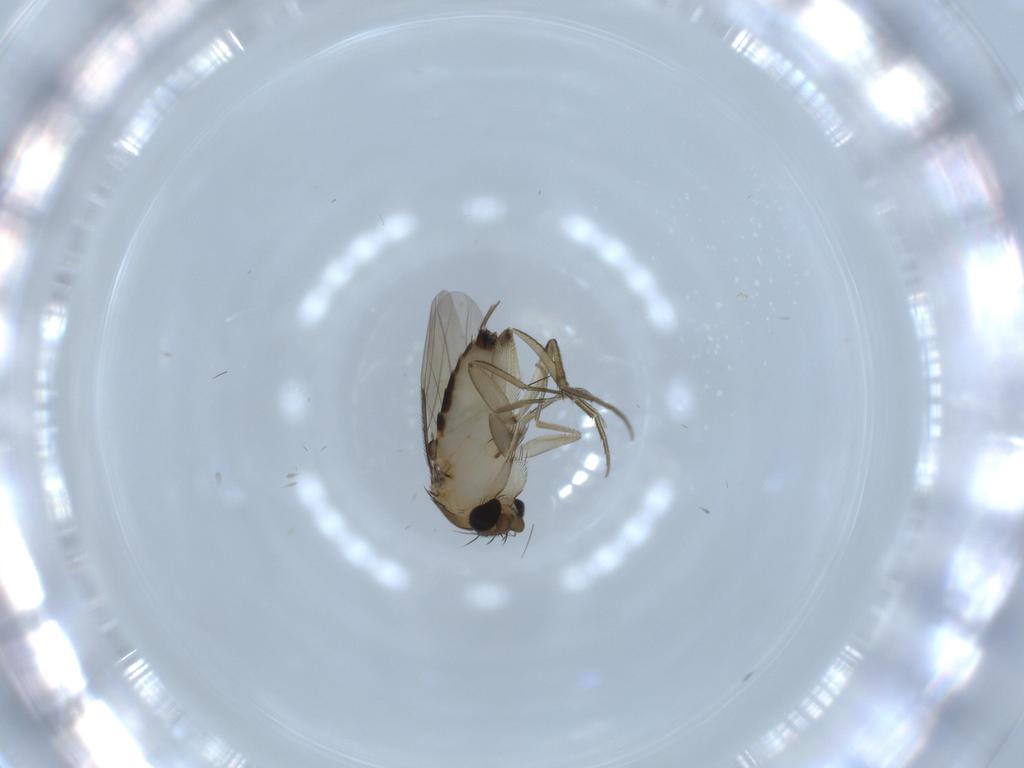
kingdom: Animalia
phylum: Arthropoda
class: Insecta
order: Diptera
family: Phoridae
